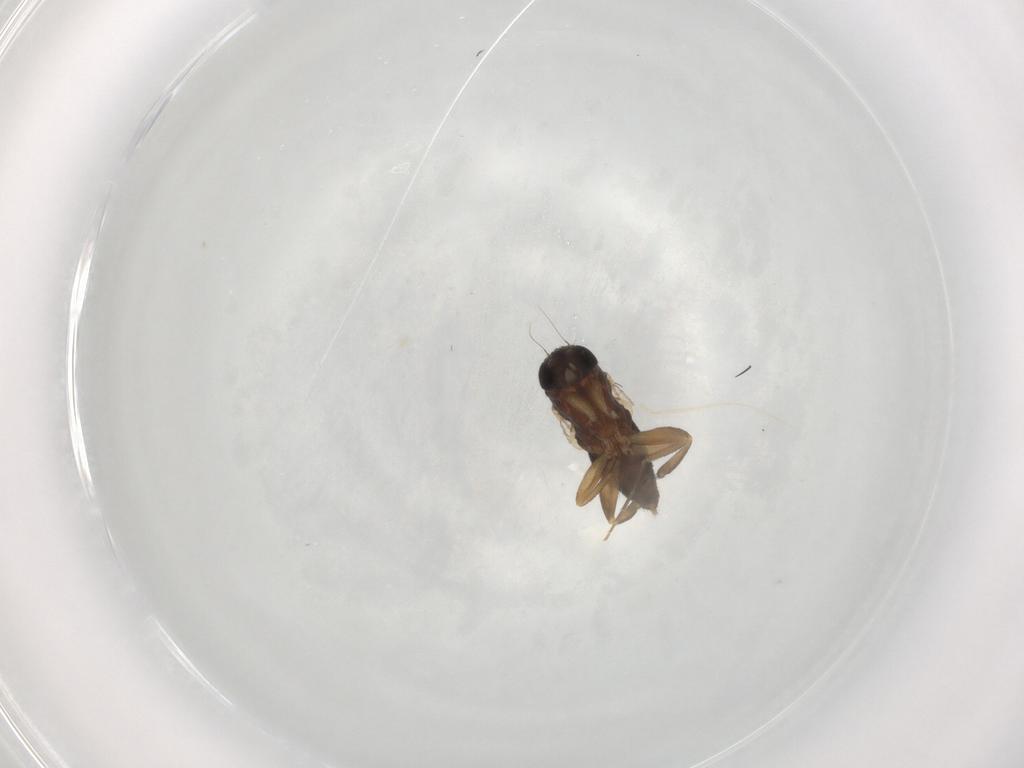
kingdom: Animalia
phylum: Arthropoda
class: Insecta
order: Diptera
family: Phoridae
